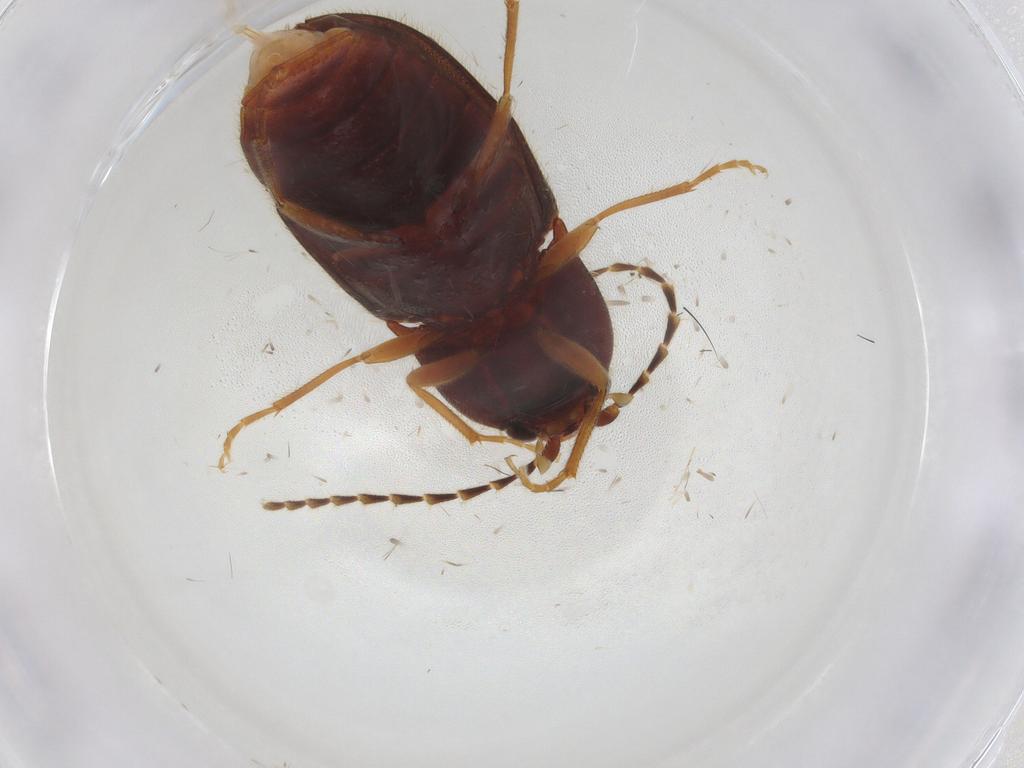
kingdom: Animalia
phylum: Arthropoda
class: Insecta
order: Coleoptera
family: Elateridae
